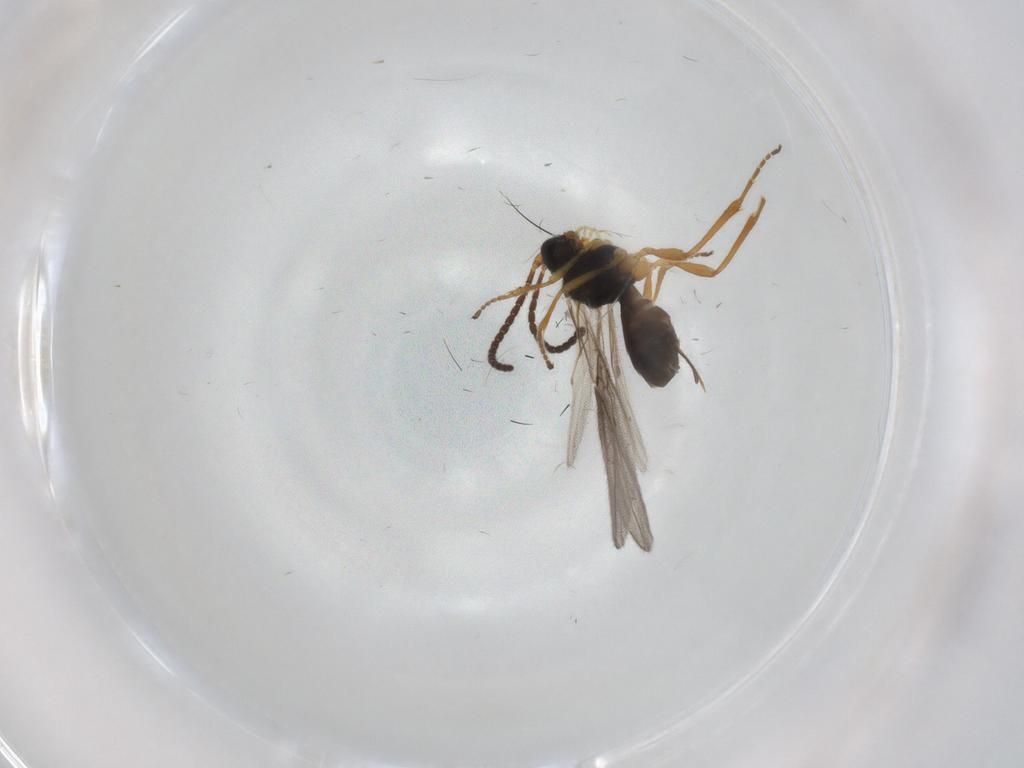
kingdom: Animalia
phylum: Arthropoda
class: Insecta
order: Hymenoptera
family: Braconidae
